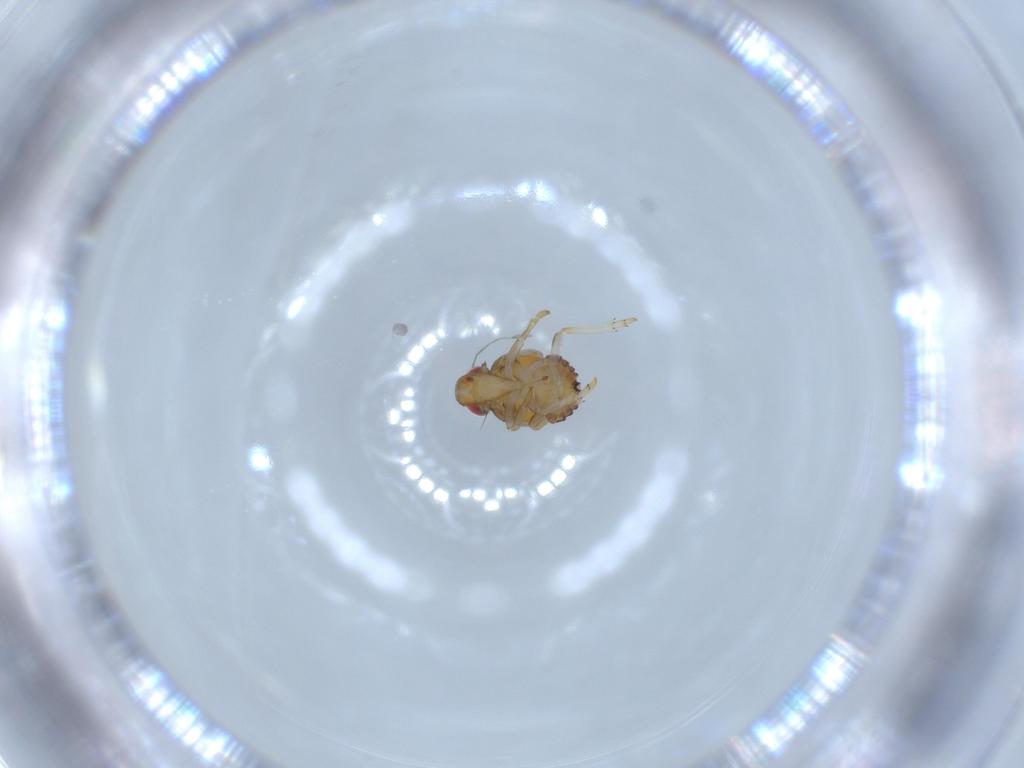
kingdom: Animalia
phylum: Arthropoda
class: Insecta
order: Hemiptera
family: Issidae
